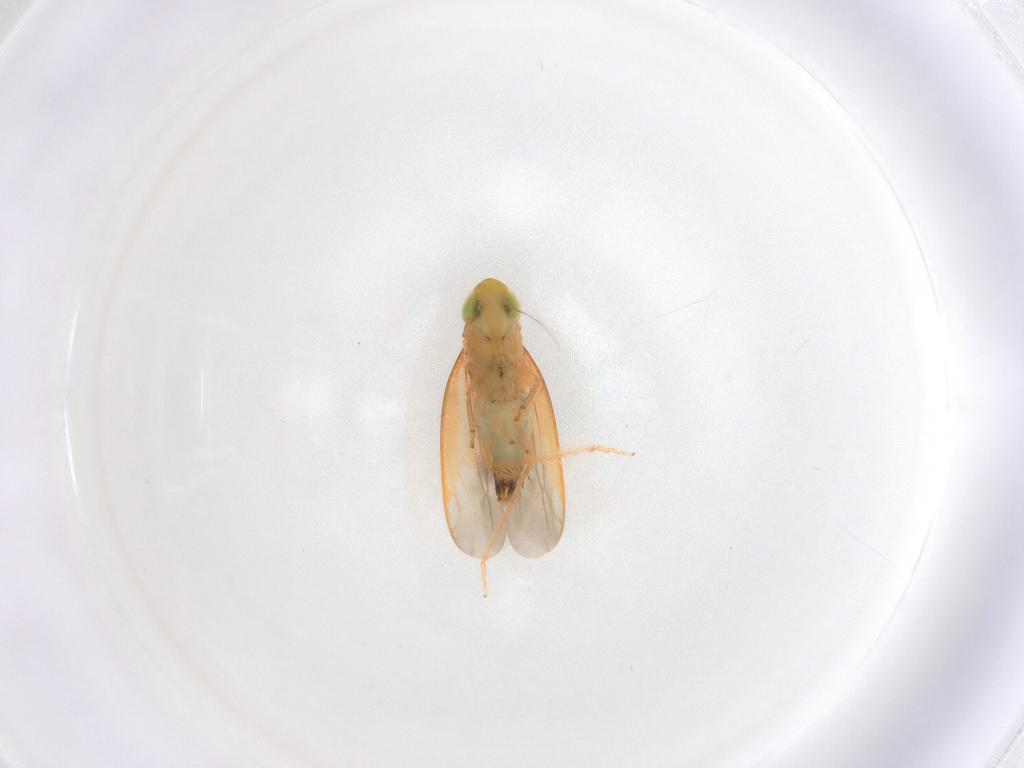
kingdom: Animalia
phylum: Arthropoda
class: Insecta
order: Hemiptera
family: Cicadellidae
